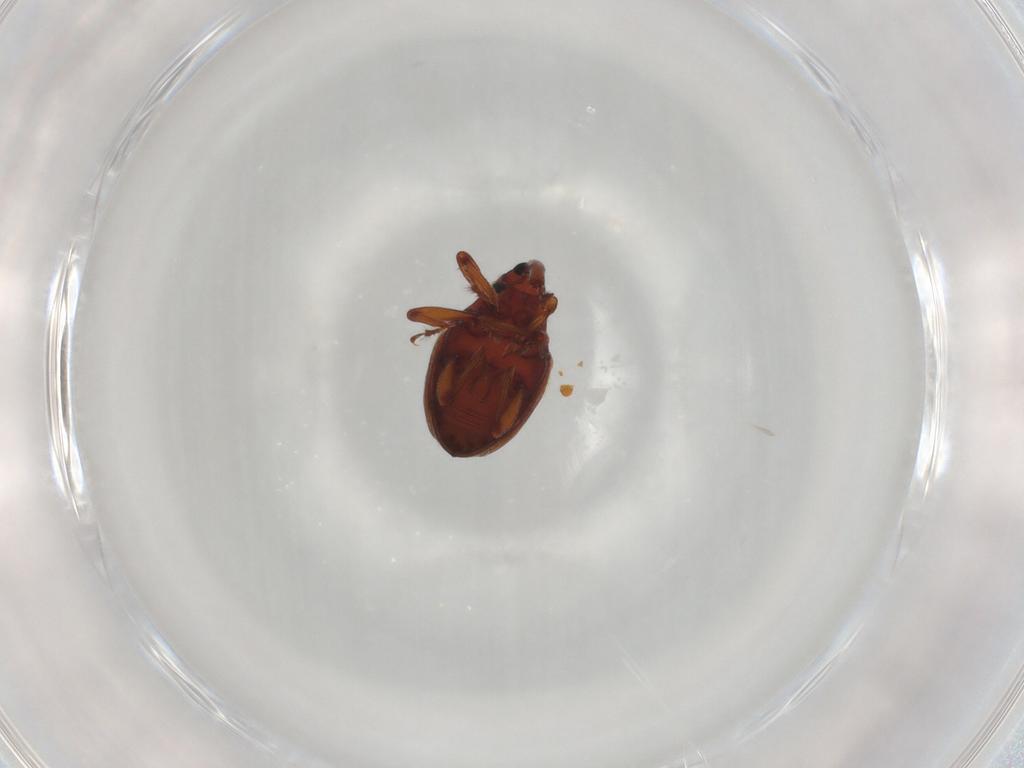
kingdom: Animalia
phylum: Arthropoda
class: Insecta
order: Coleoptera
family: Curculionidae
